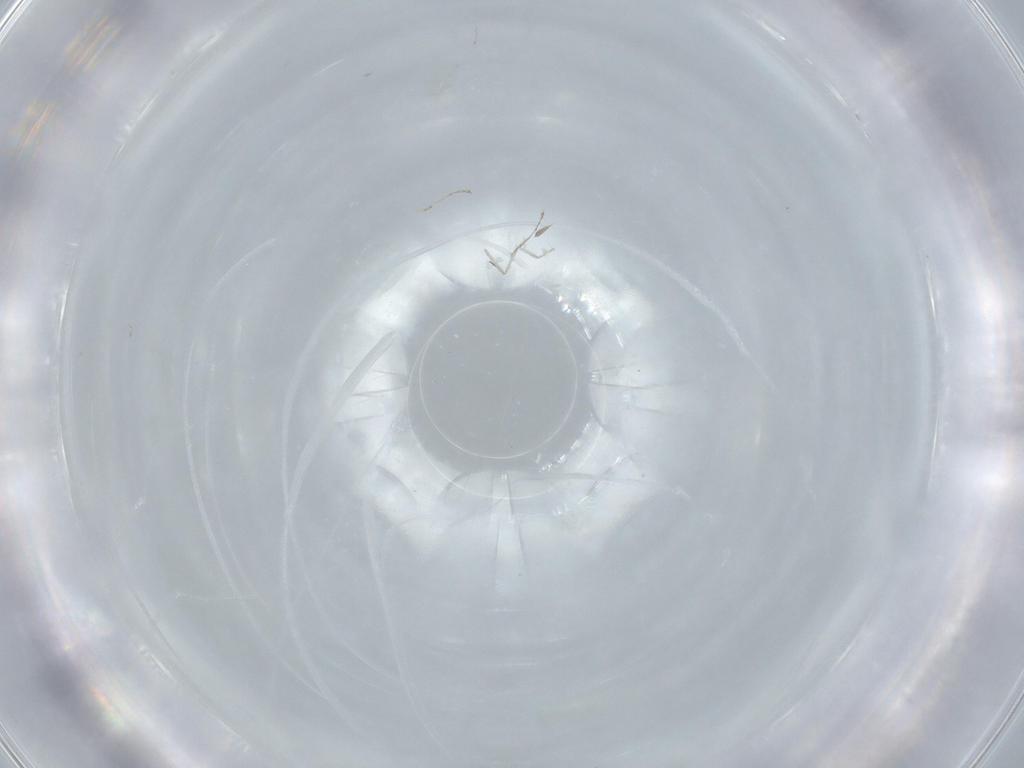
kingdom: Animalia
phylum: Arthropoda
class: Insecta
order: Diptera
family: Cecidomyiidae
